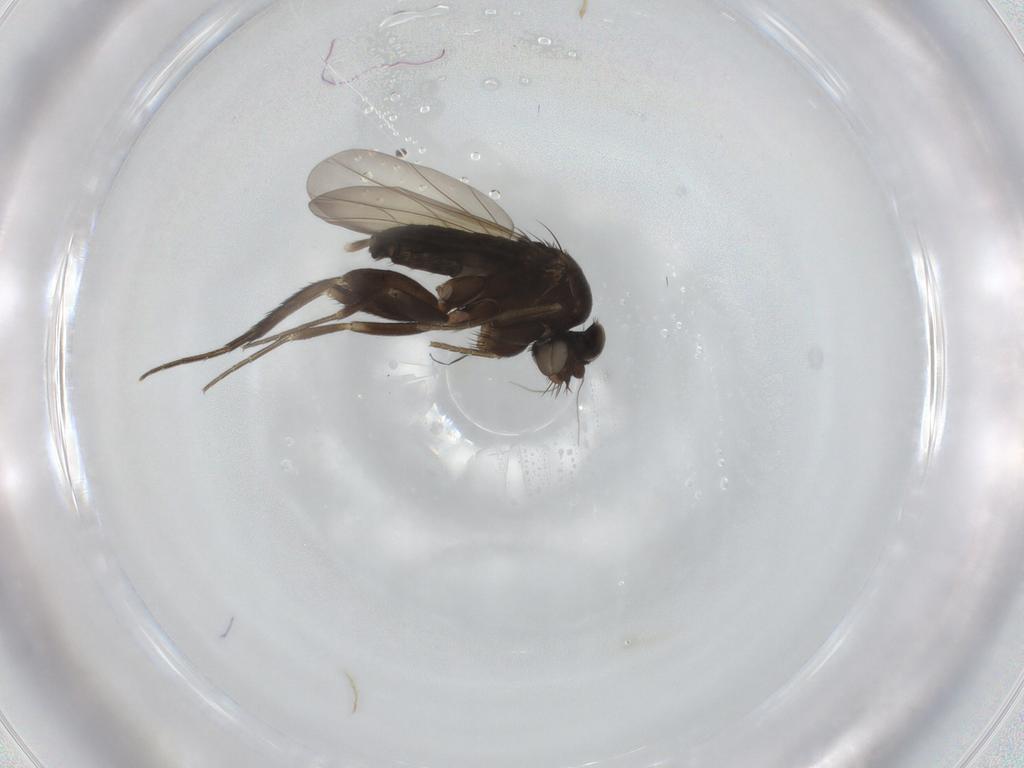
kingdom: Animalia
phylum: Arthropoda
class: Insecta
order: Diptera
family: Phoridae
